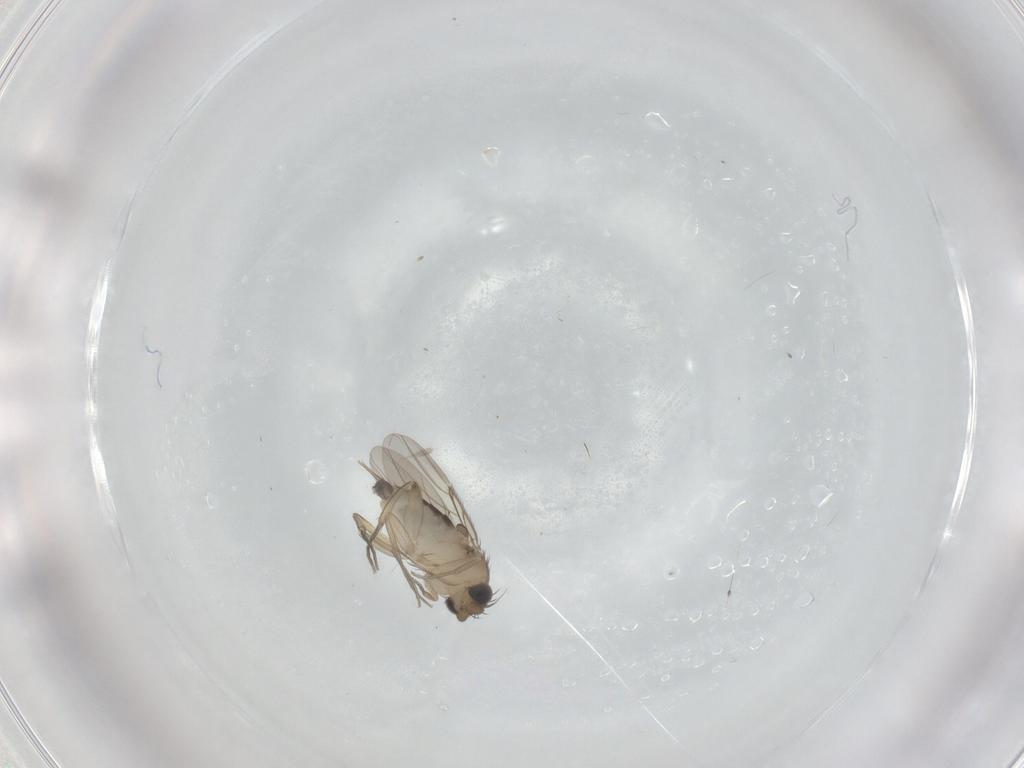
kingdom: Animalia
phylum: Arthropoda
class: Insecta
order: Diptera
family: Phoridae
